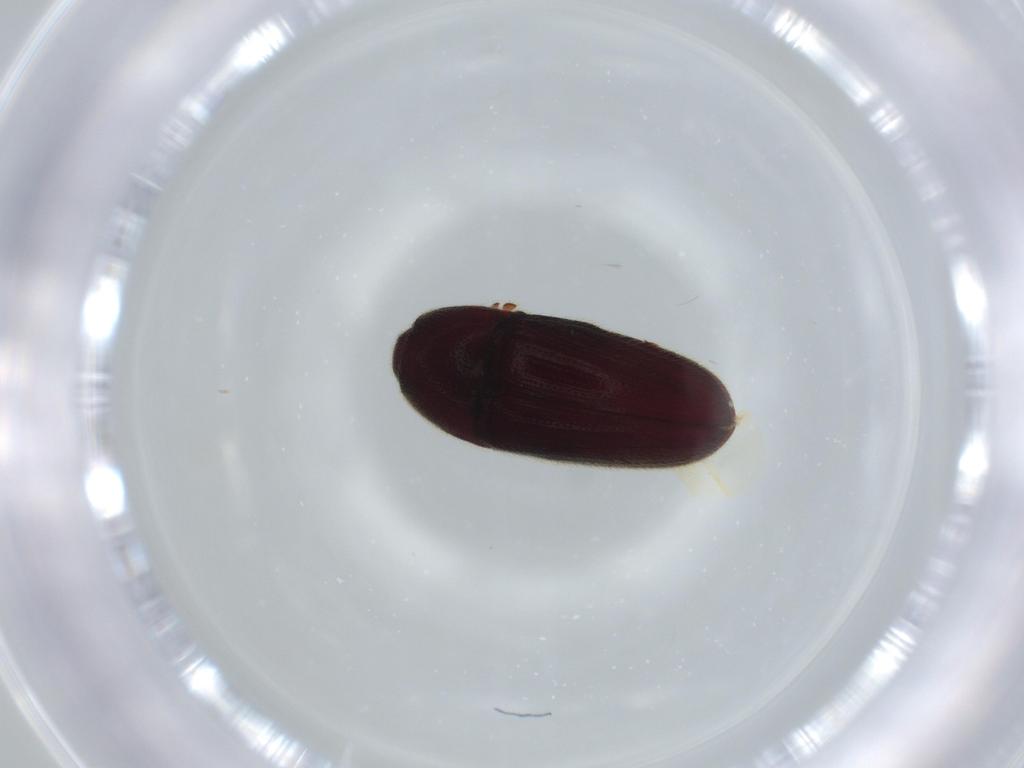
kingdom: Animalia
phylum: Arthropoda
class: Insecta
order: Coleoptera
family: Throscidae
